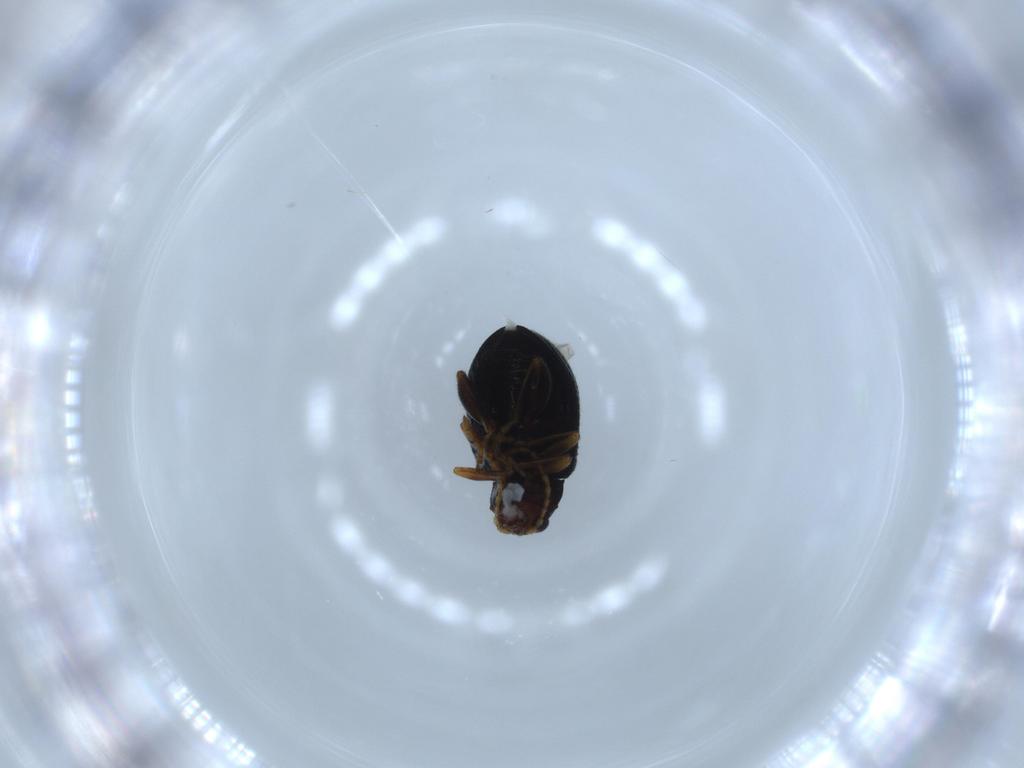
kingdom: Animalia
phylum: Arthropoda
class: Insecta
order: Coleoptera
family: Chrysomelidae
